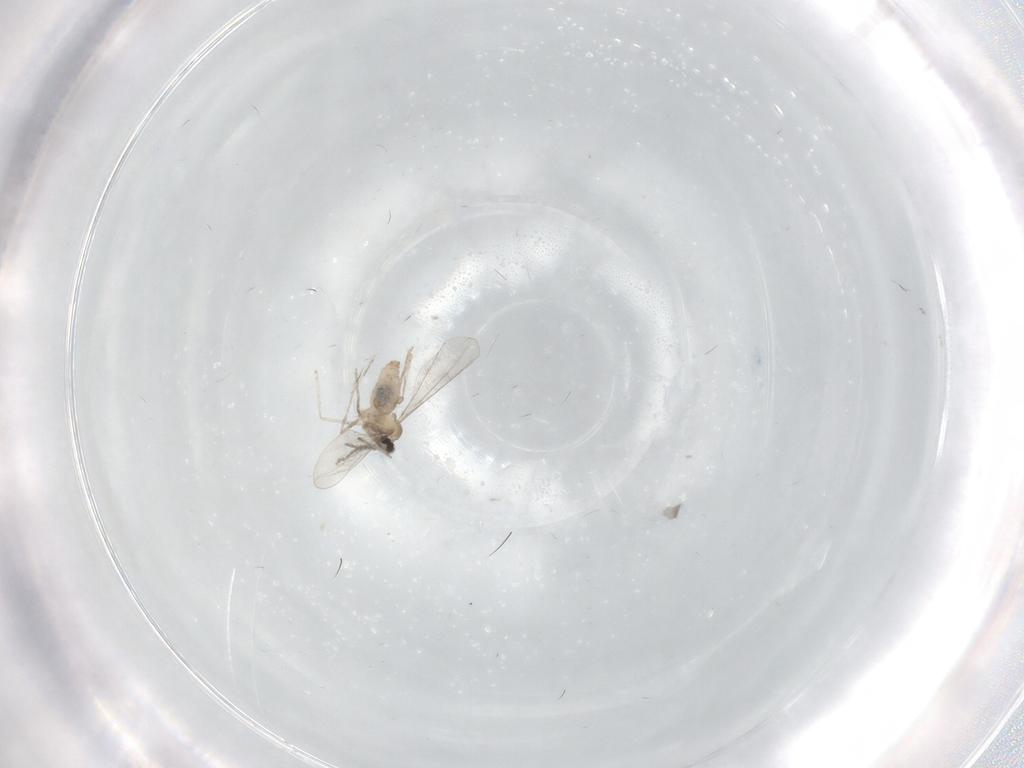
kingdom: Animalia
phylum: Arthropoda
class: Insecta
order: Diptera
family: Sciaridae
